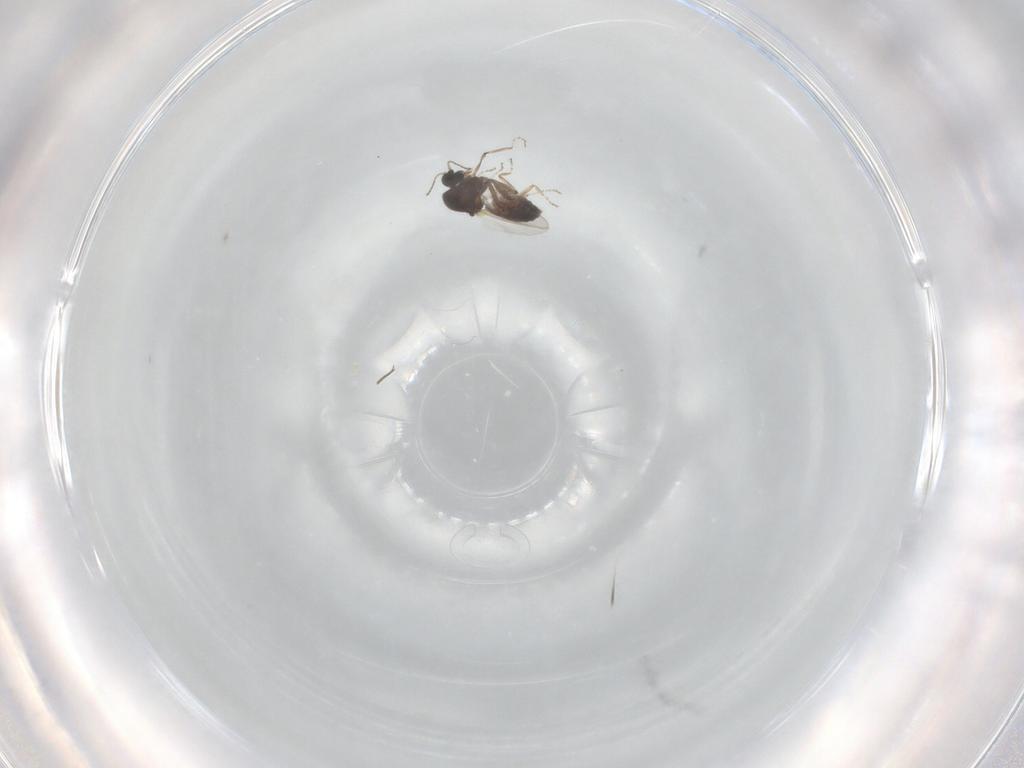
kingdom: Animalia
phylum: Arthropoda
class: Insecta
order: Diptera
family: Ceratopogonidae
